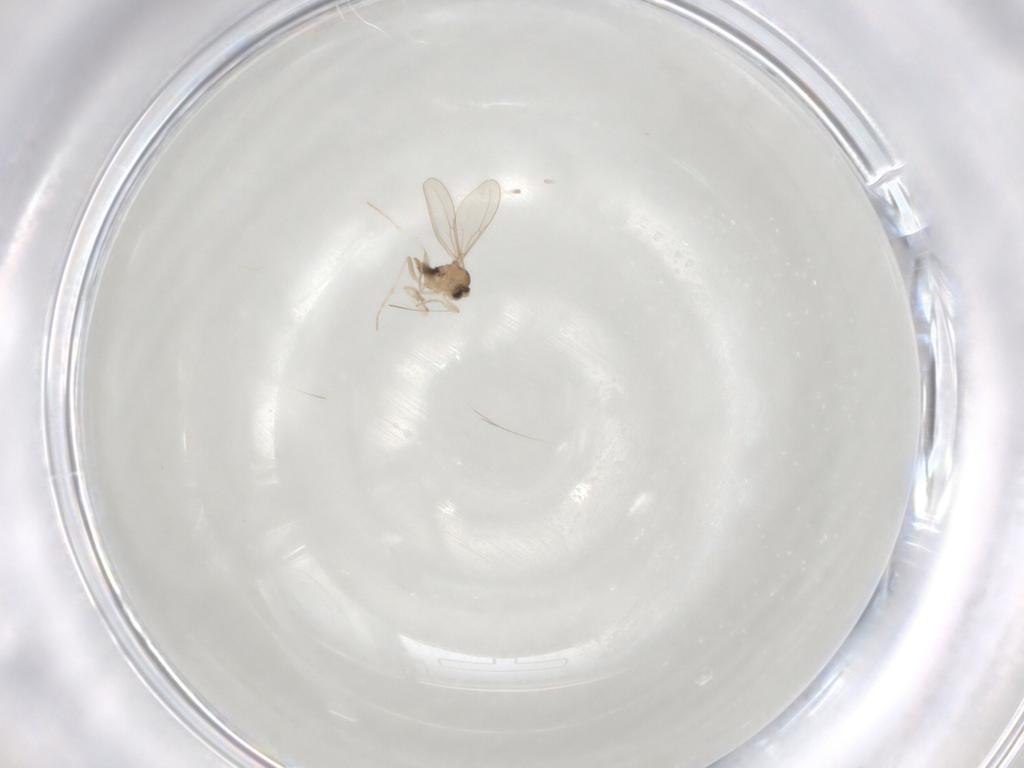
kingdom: Animalia
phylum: Arthropoda
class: Insecta
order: Diptera
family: Cecidomyiidae
